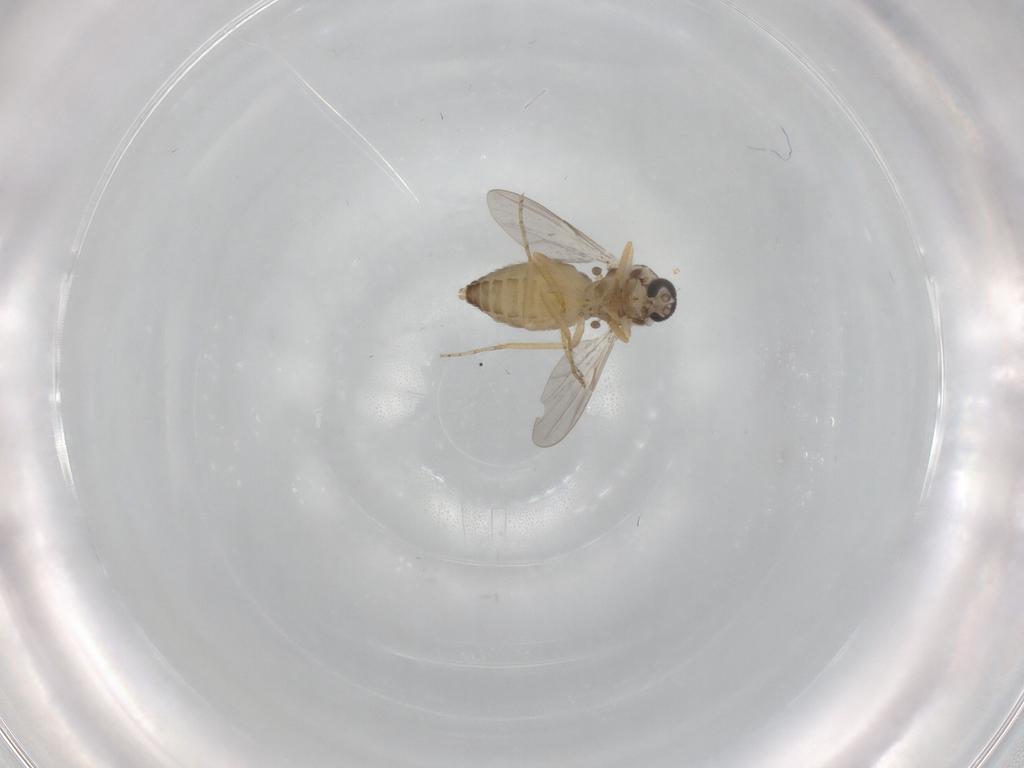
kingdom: Animalia
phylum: Arthropoda
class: Insecta
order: Diptera
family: Ceratopogonidae
